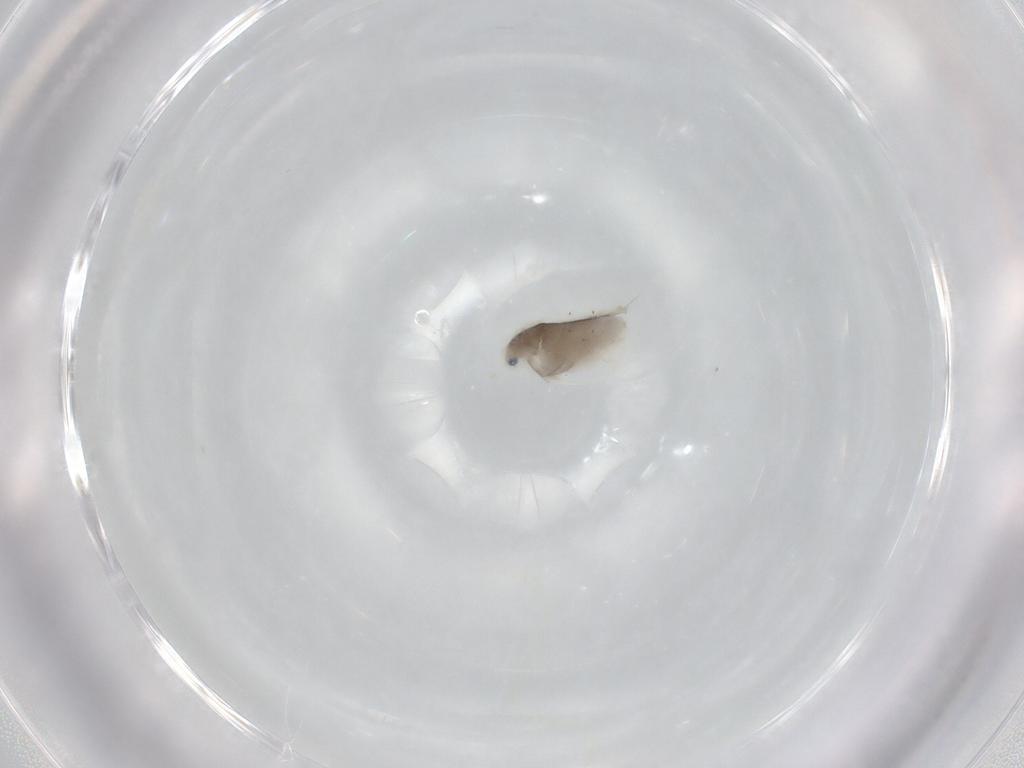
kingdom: Animalia
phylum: Arthropoda
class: Branchiopoda
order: Diplostraca
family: Daphniidae
